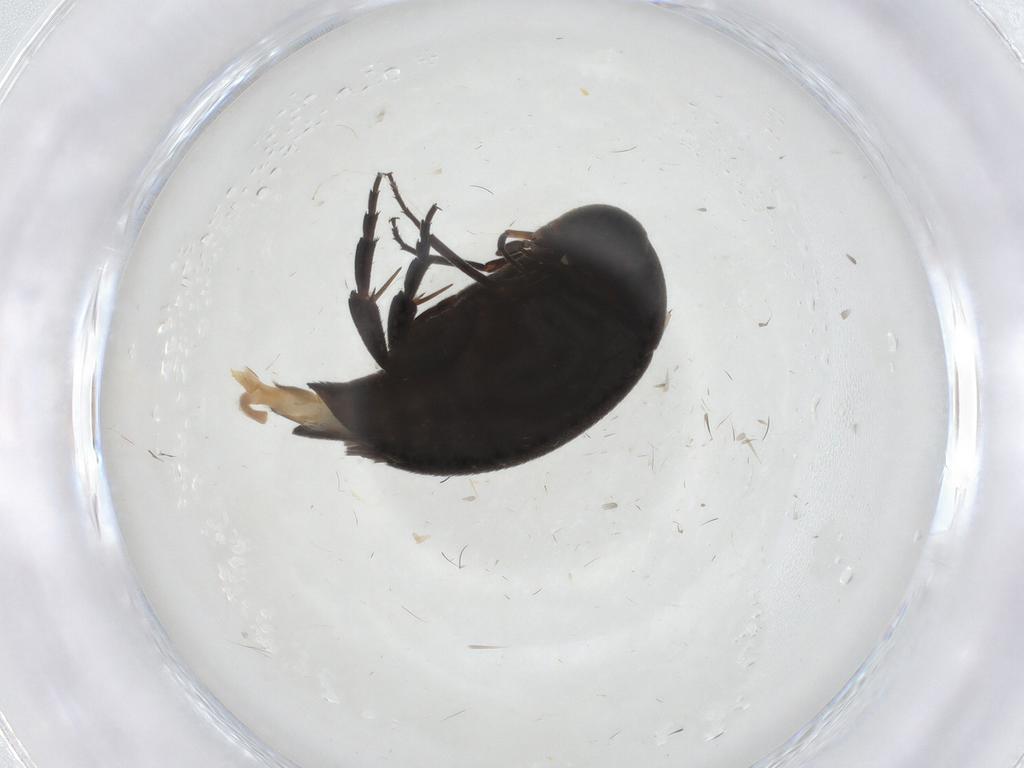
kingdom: Animalia
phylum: Arthropoda
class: Insecta
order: Coleoptera
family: Mordellidae
